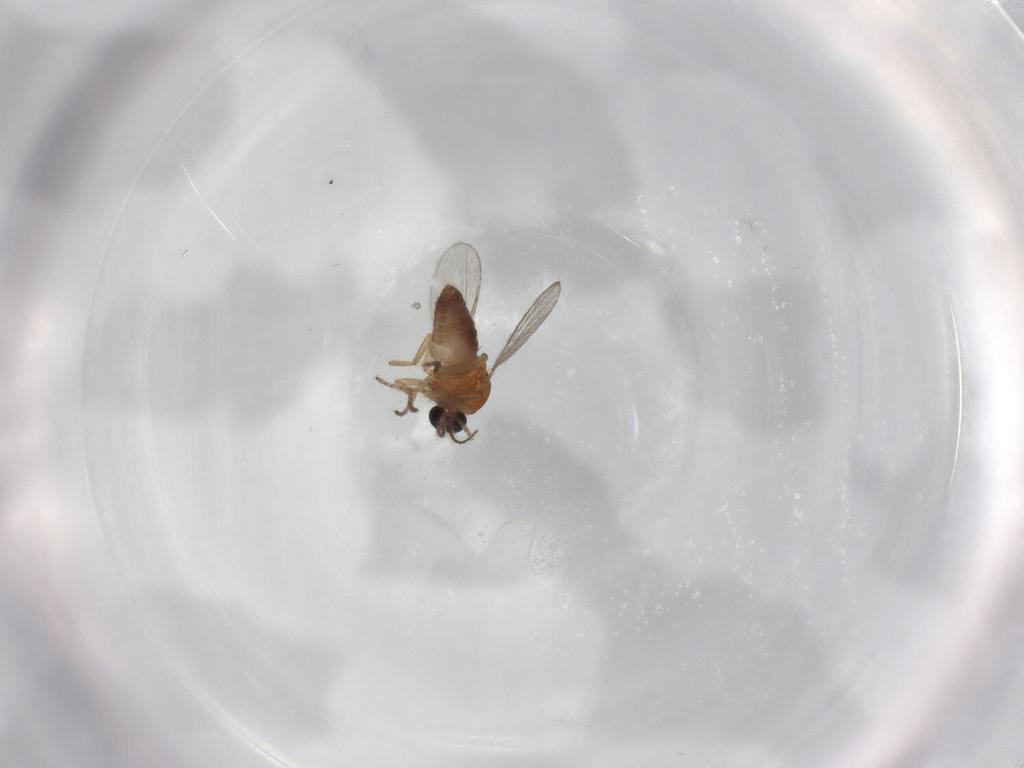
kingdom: Animalia
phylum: Arthropoda
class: Insecta
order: Diptera
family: Ceratopogonidae
